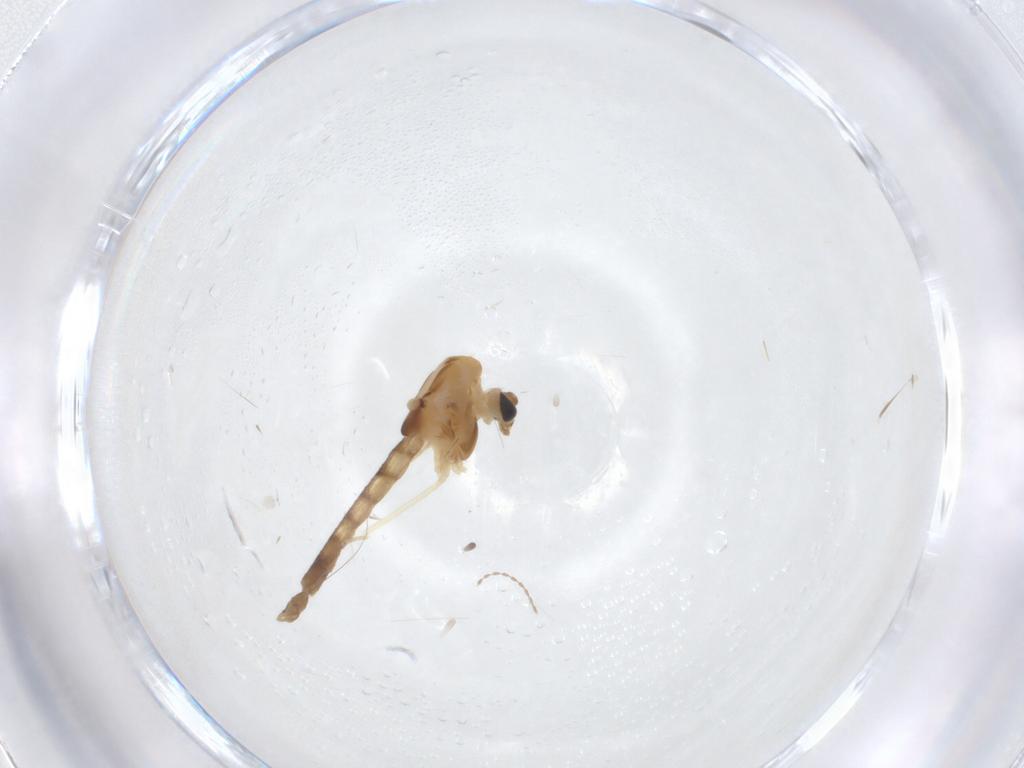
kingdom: Animalia
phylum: Arthropoda
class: Insecta
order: Diptera
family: Chironomidae
